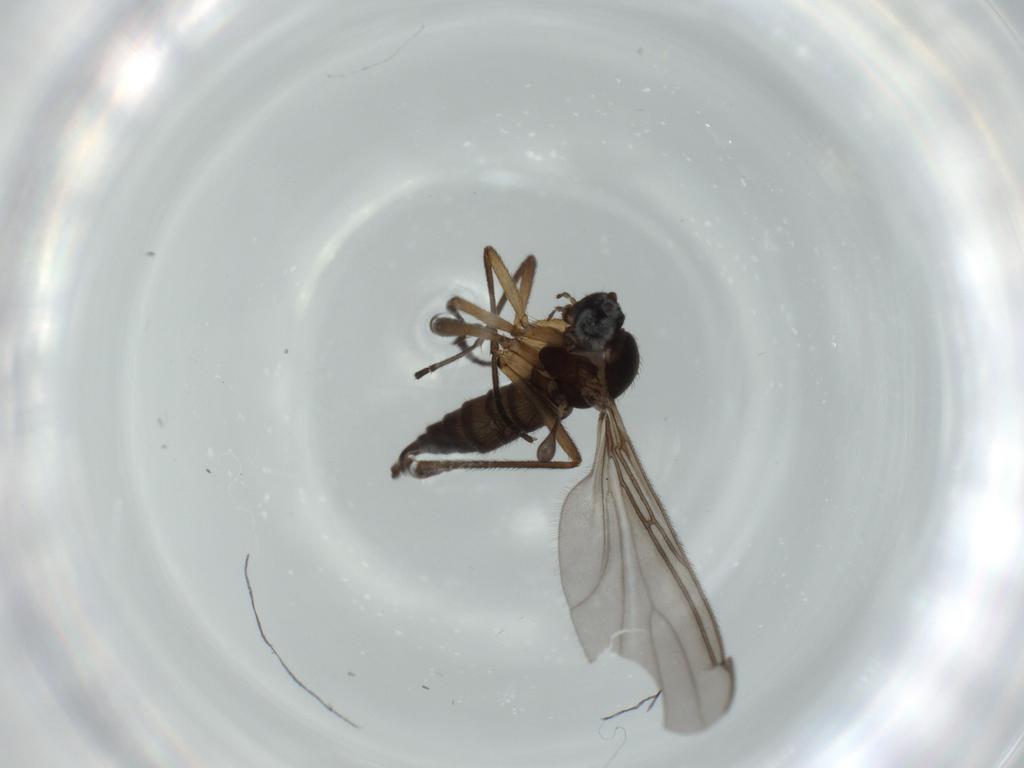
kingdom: Animalia
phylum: Arthropoda
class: Insecta
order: Diptera
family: Sciaridae
